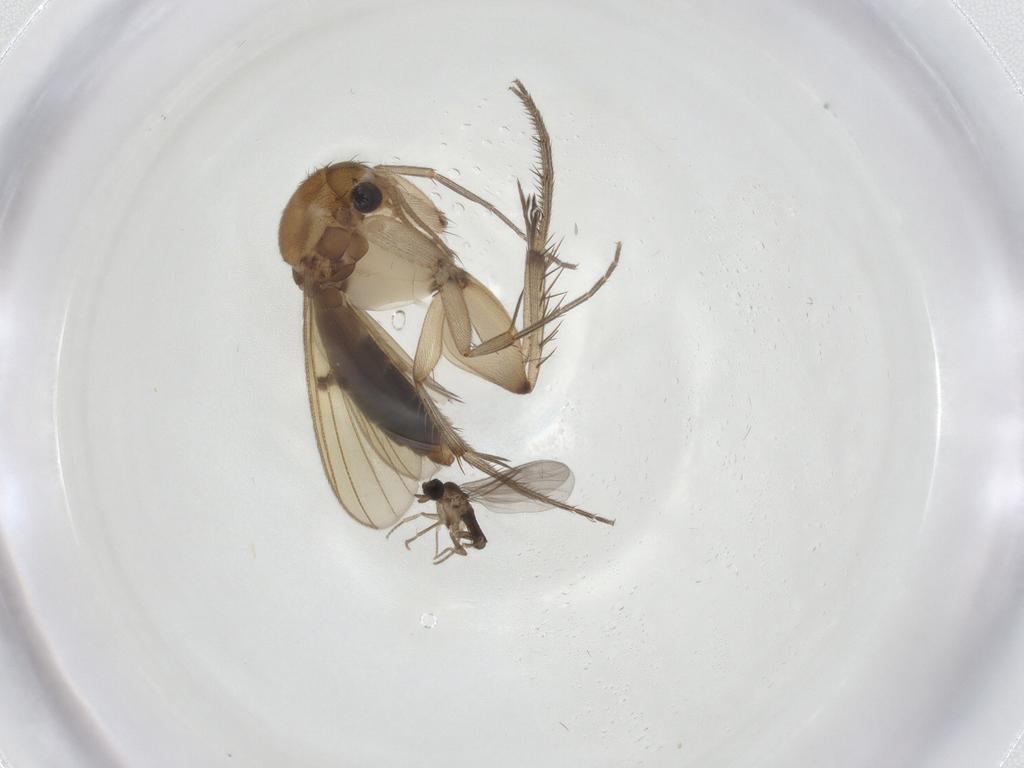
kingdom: Animalia
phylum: Arthropoda
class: Insecta
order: Diptera
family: Mycetophilidae
